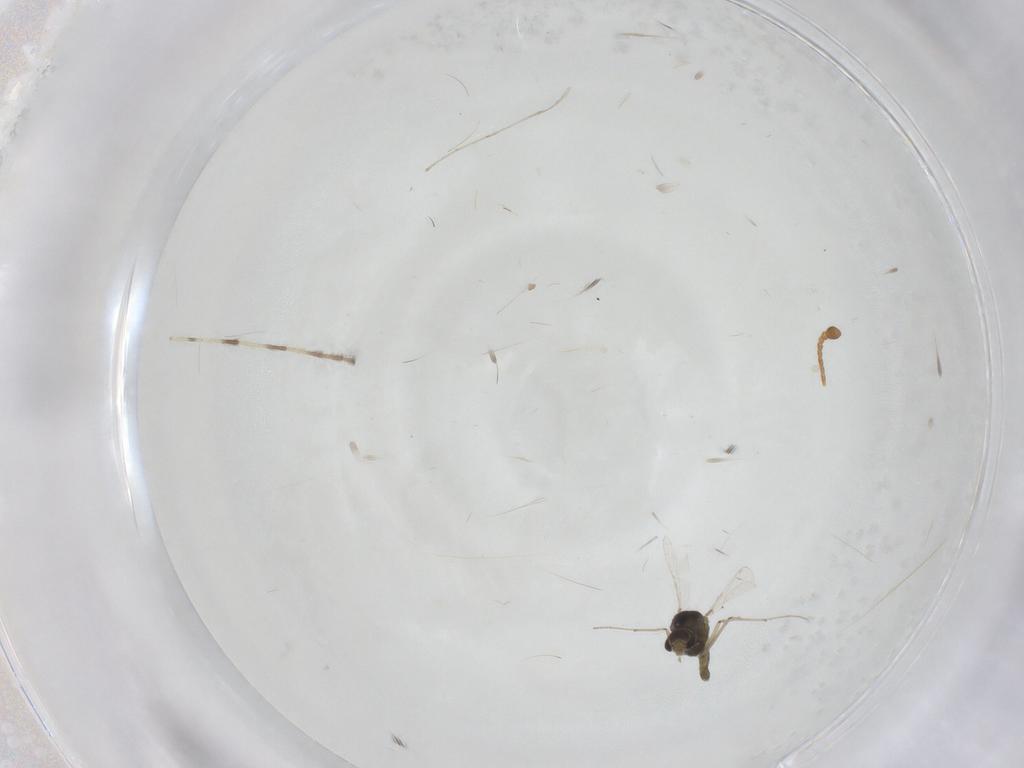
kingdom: Animalia
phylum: Arthropoda
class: Insecta
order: Diptera
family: Chironomidae
